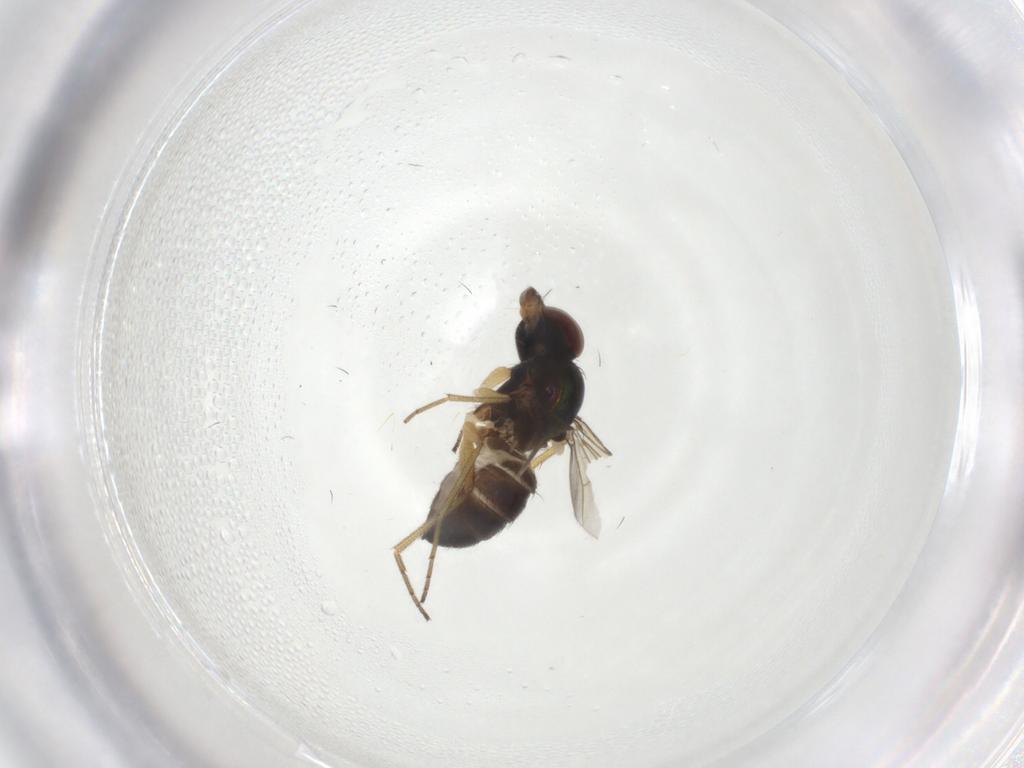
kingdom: Animalia
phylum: Arthropoda
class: Insecta
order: Diptera
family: Dolichopodidae
